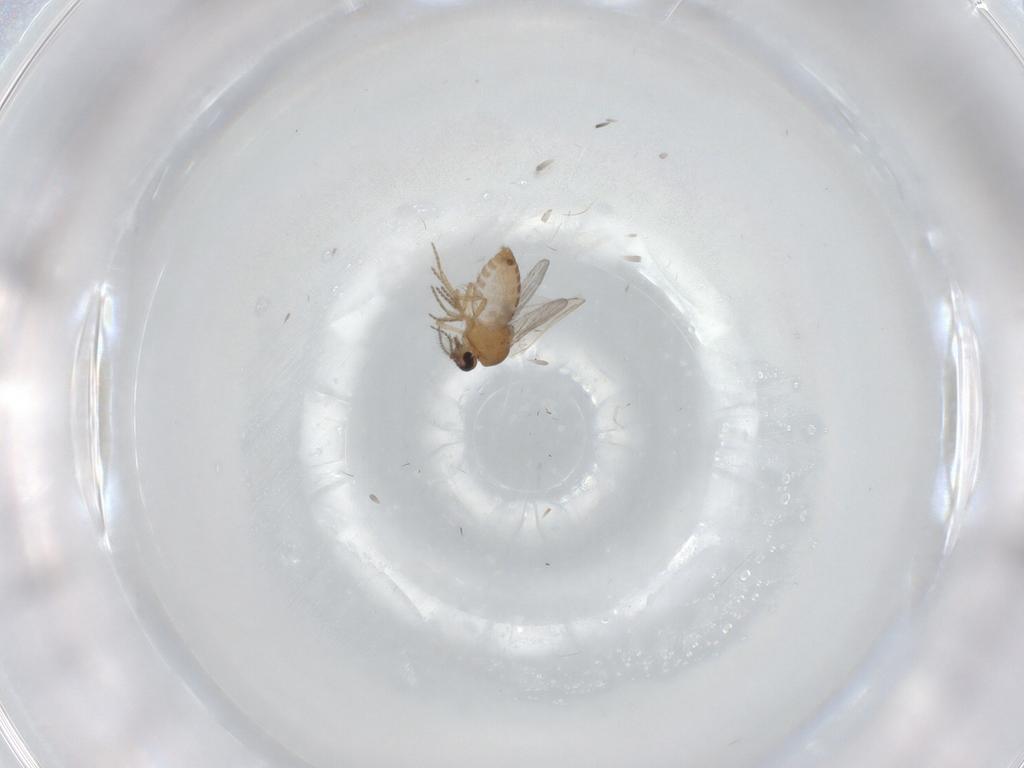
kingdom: Animalia
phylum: Arthropoda
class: Insecta
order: Diptera
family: Ceratopogonidae
